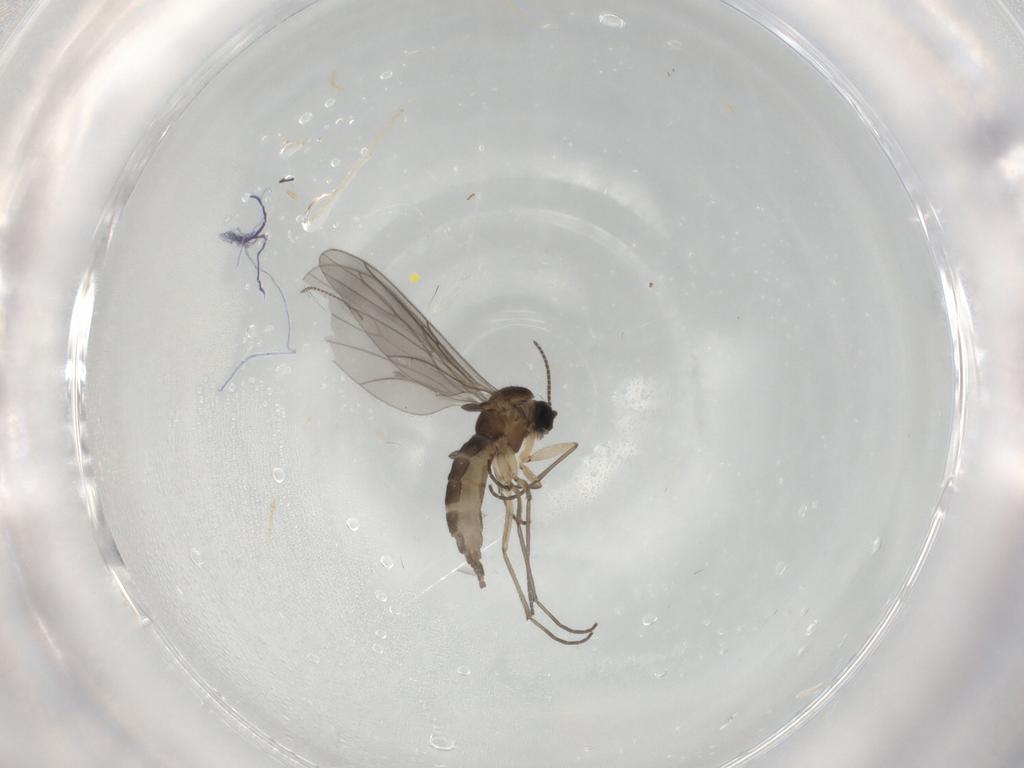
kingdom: Animalia
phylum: Arthropoda
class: Insecta
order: Diptera
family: Sciaridae
